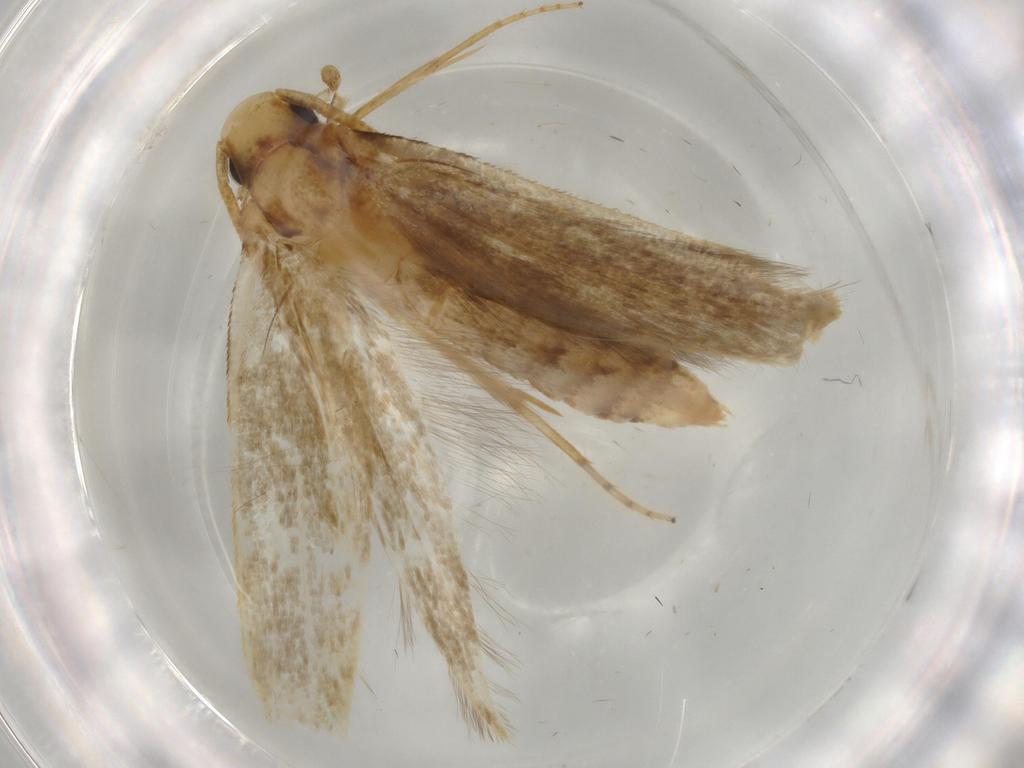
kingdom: Animalia
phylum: Arthropoda
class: Insecta
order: Lepidoptera
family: Tineidae
